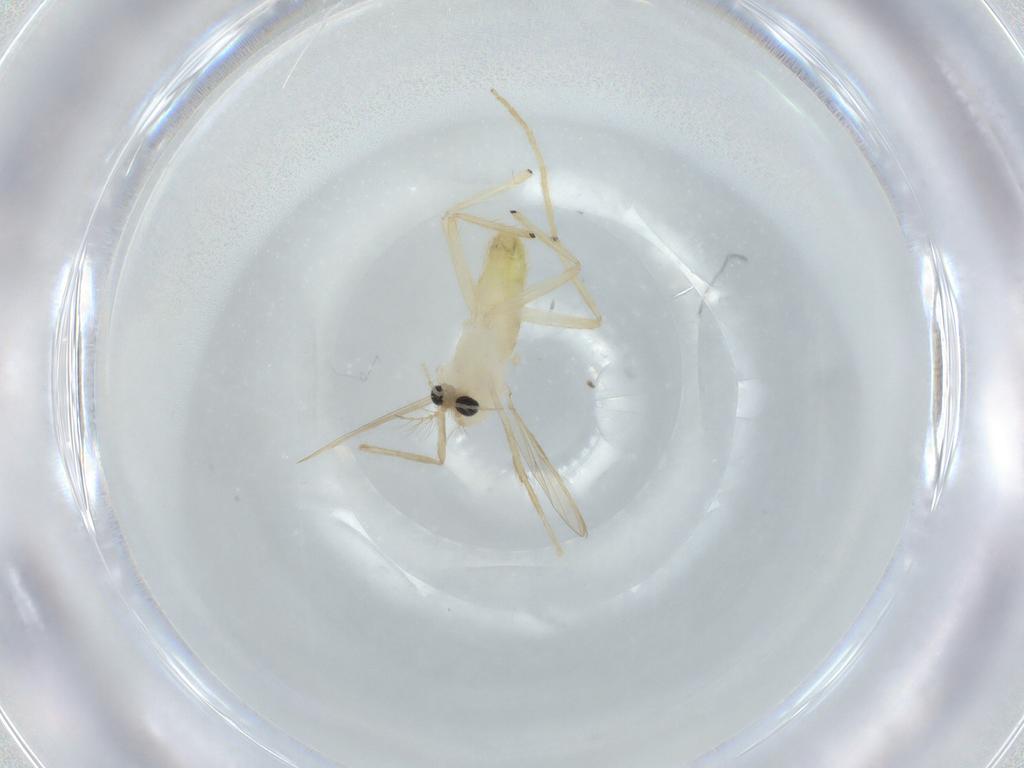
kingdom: Animalia
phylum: Arthropoda
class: Insecta
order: Diptera
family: Chironomidae
